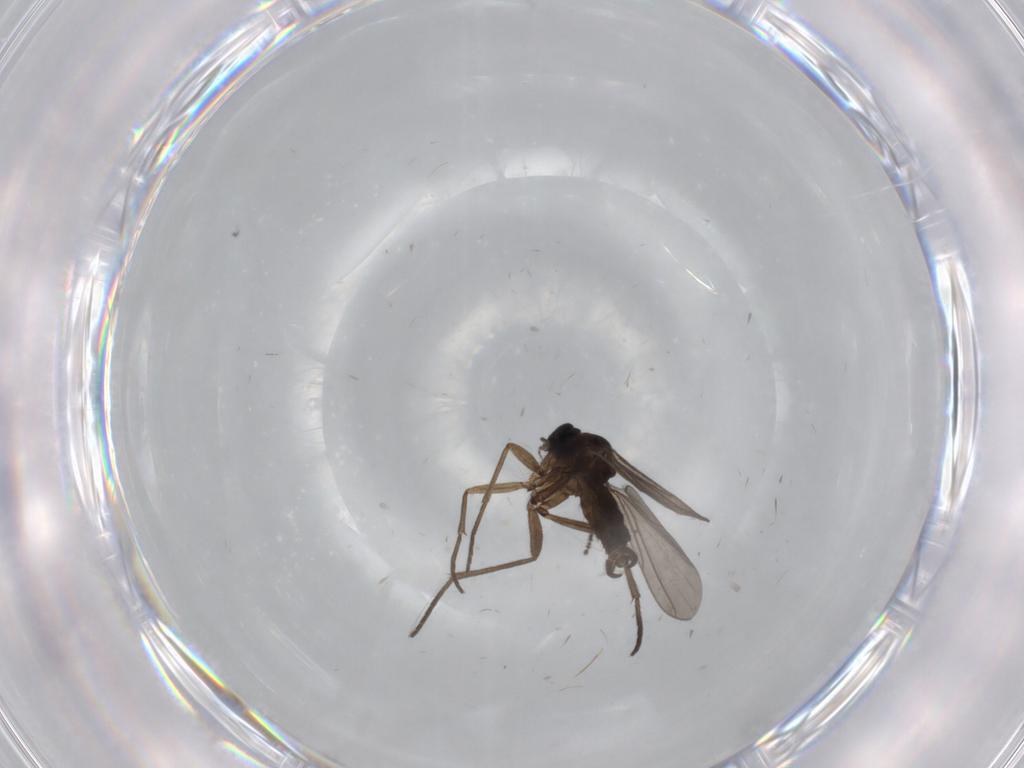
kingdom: Animalia
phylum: Arthropoda
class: Insecta
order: Diptera
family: Sciaridae
